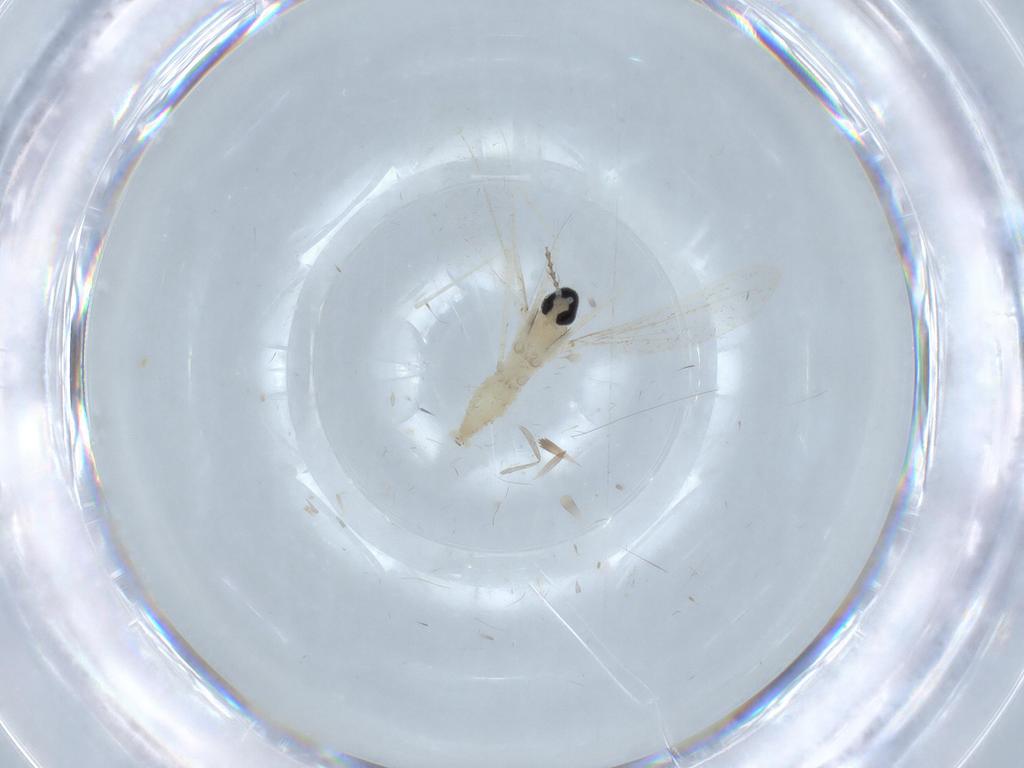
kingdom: Animalia
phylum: Arthropoda
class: Insecta
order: Diptera
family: Cecidomyiidae
